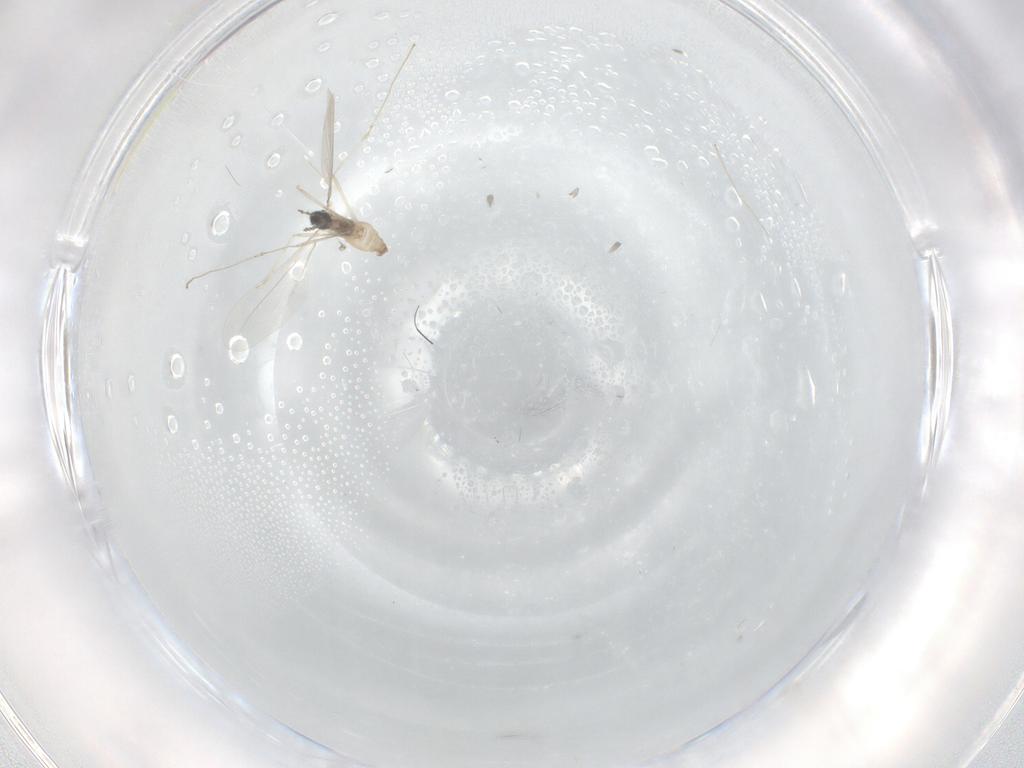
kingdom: Animalia
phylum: Arthropoda
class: Insecta
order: Diptera
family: Cecidomyiidae
